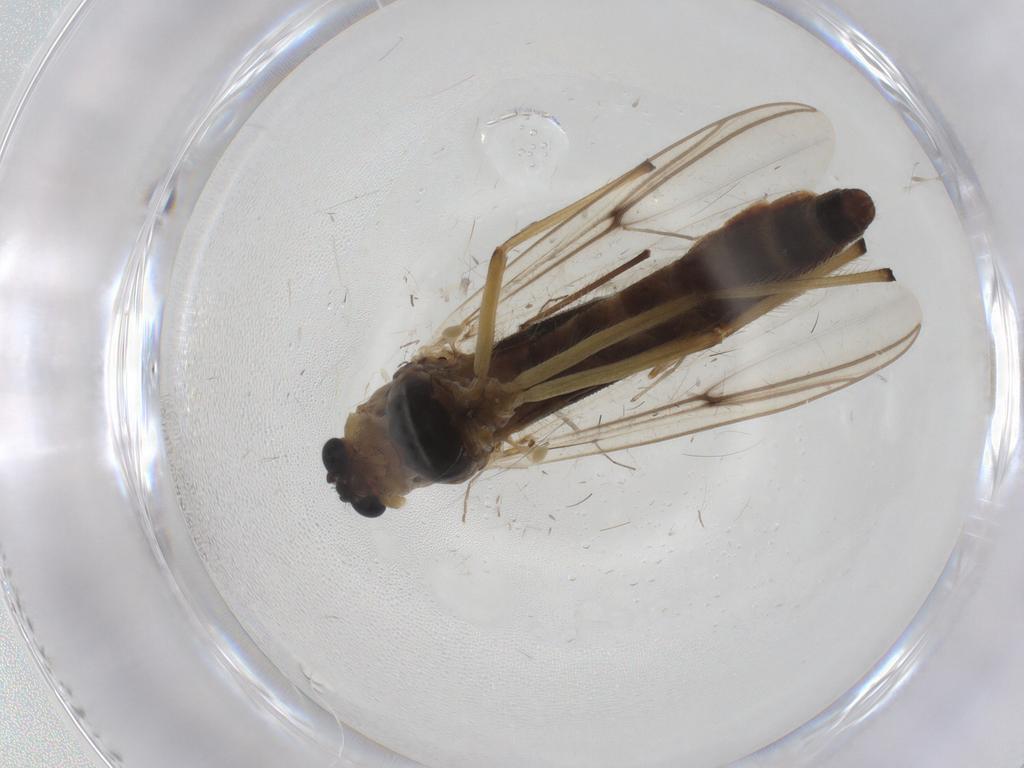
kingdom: Animalia
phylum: Arthropoda
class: Insecta
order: Diptera
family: Chironomidae
